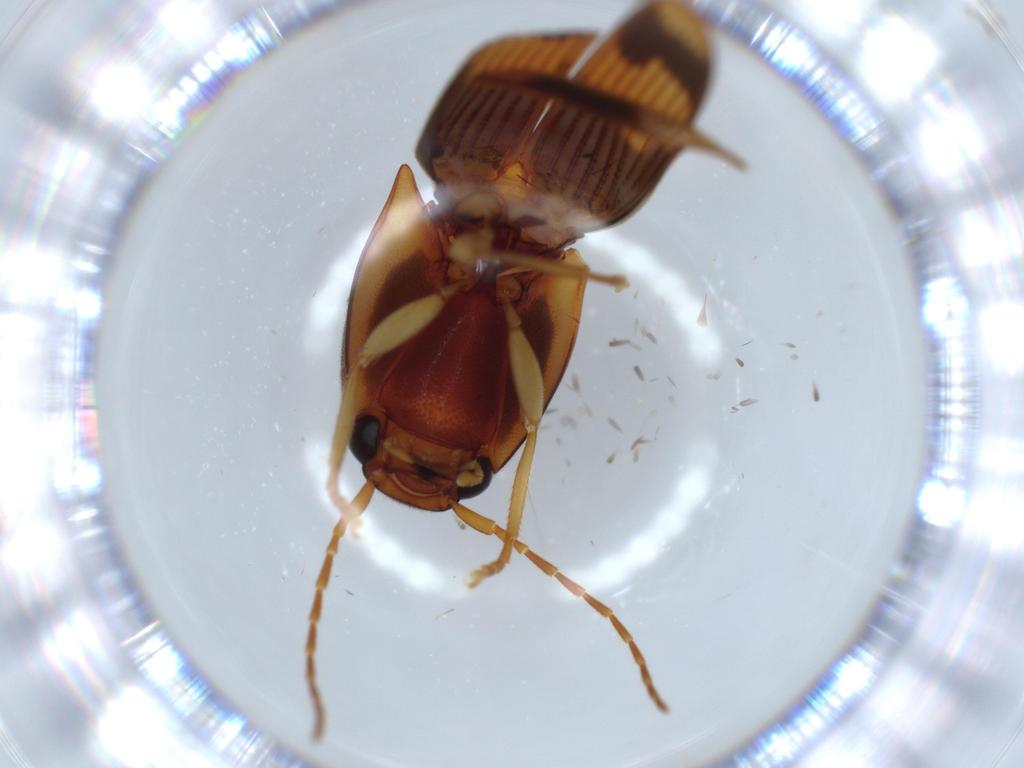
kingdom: Animalia
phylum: Arthropoda
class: Insecta
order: Coleoptera
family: Elateridae
